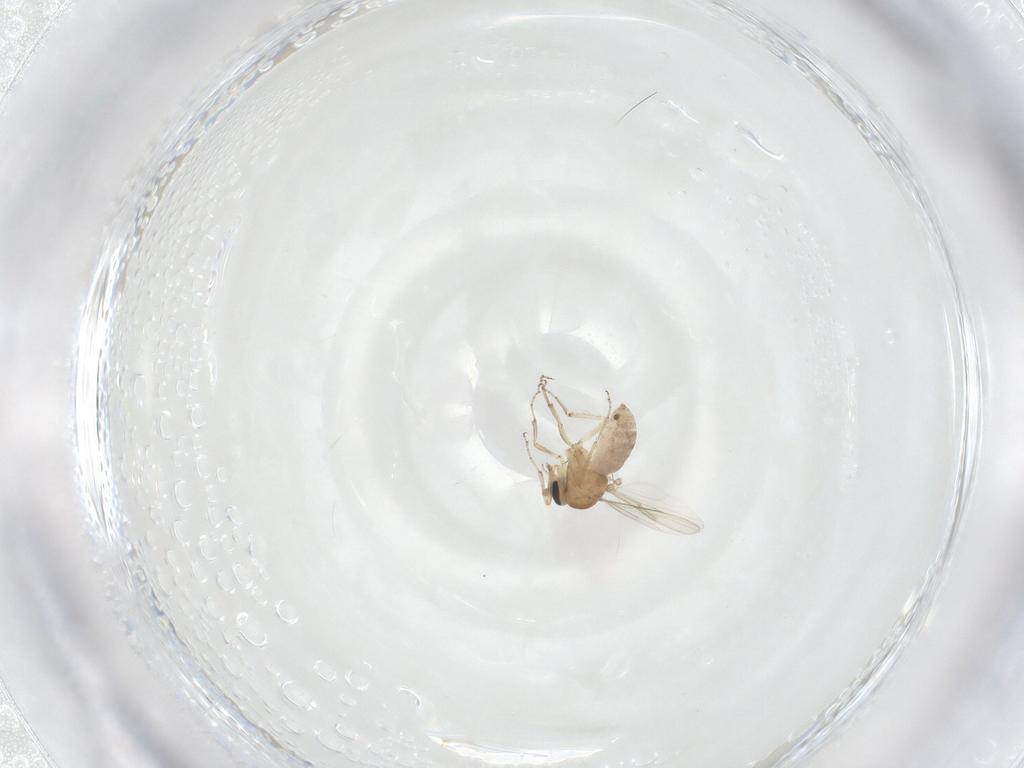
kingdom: Animalia
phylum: Arthropoda
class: Insecta
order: Diptera
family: Ceratopogonidae
